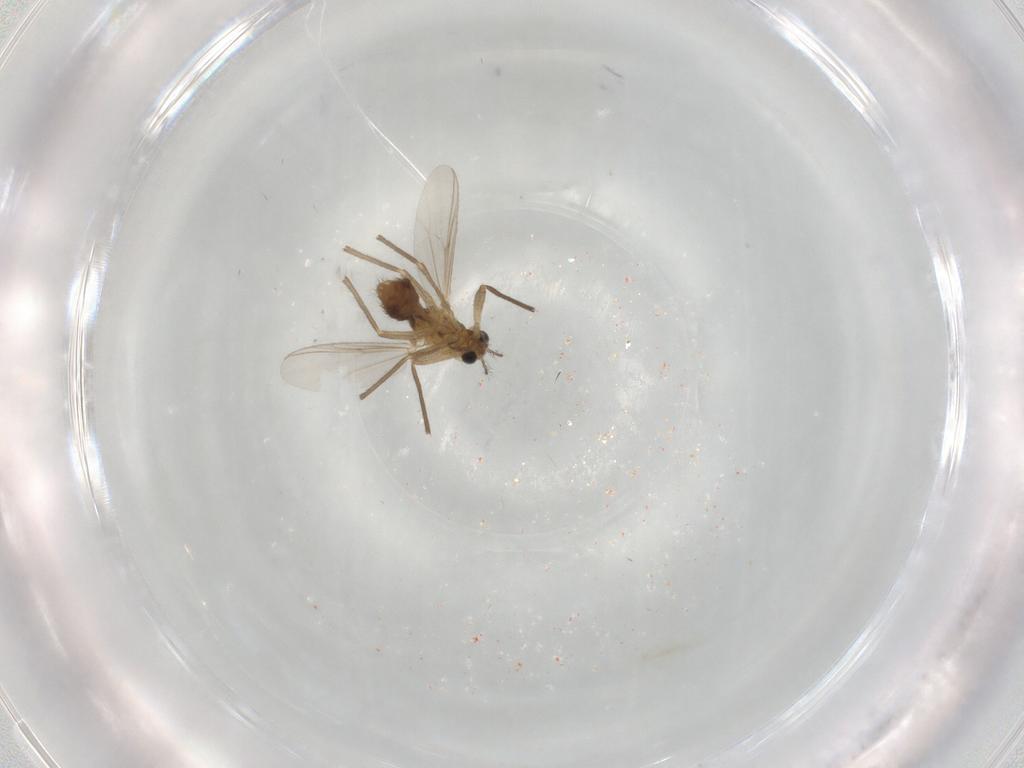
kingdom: Animalia
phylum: Arthropoda
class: Insecta
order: Diptera
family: Chironomidae
